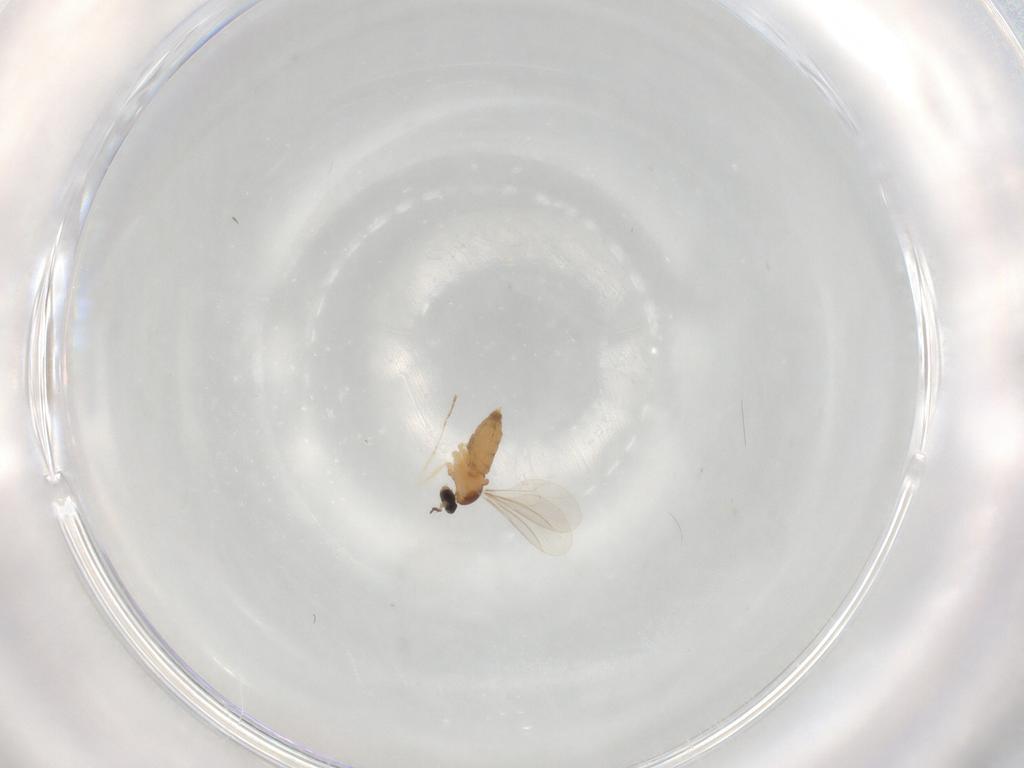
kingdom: Animalia
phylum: Arthropoda
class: Insecta
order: Diptera
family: Cecidomyiidae
